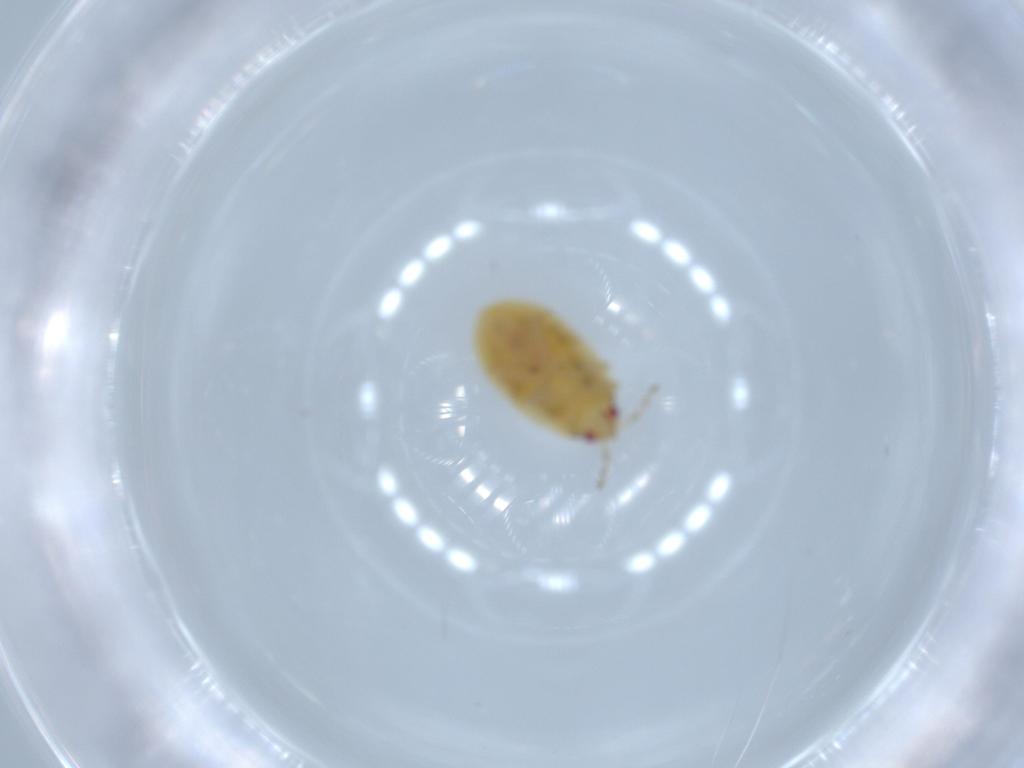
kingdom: Animalia
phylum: Arthropoda
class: Insecta
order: Hemiptera
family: Anthocoridae
